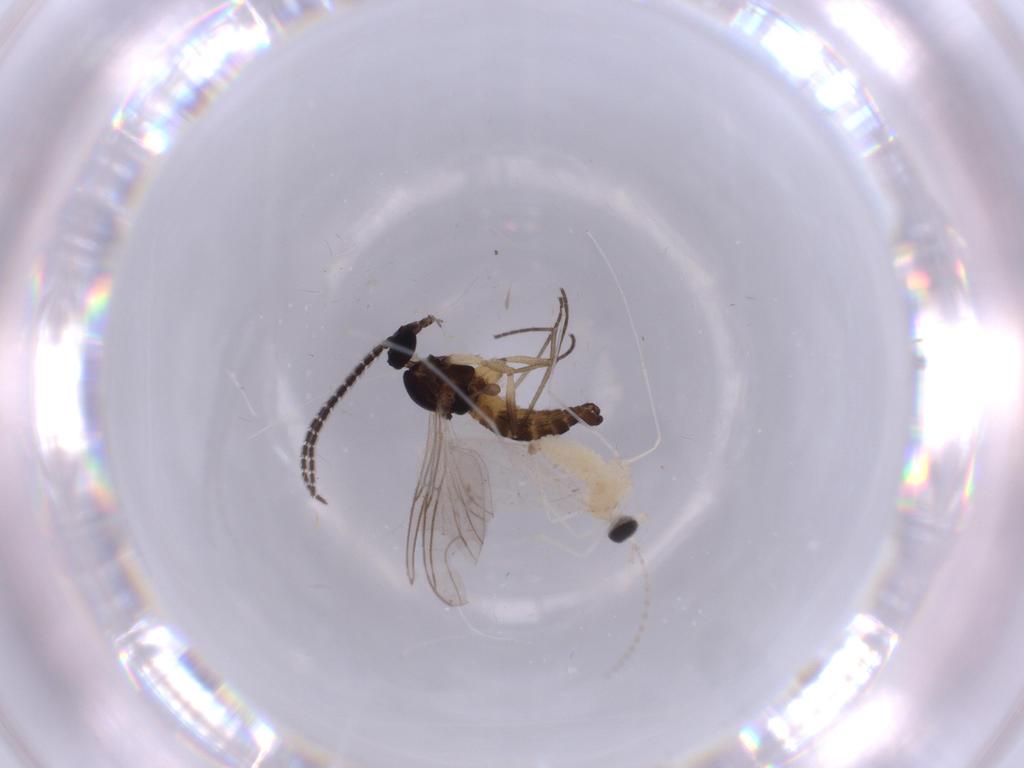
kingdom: Animalia
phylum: Arthropoda
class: Insecta
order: Diptera
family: Cecidomyiidae
